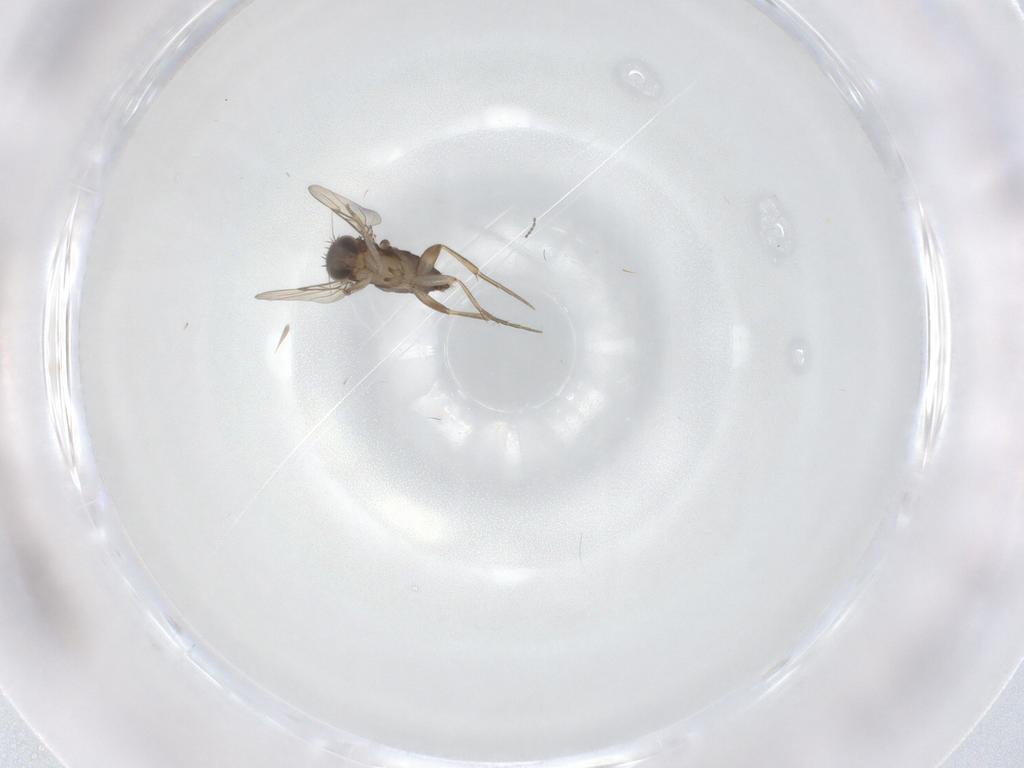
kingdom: Animalia
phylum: Arthropoda
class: Insecta
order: Diptera
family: Phoridae
